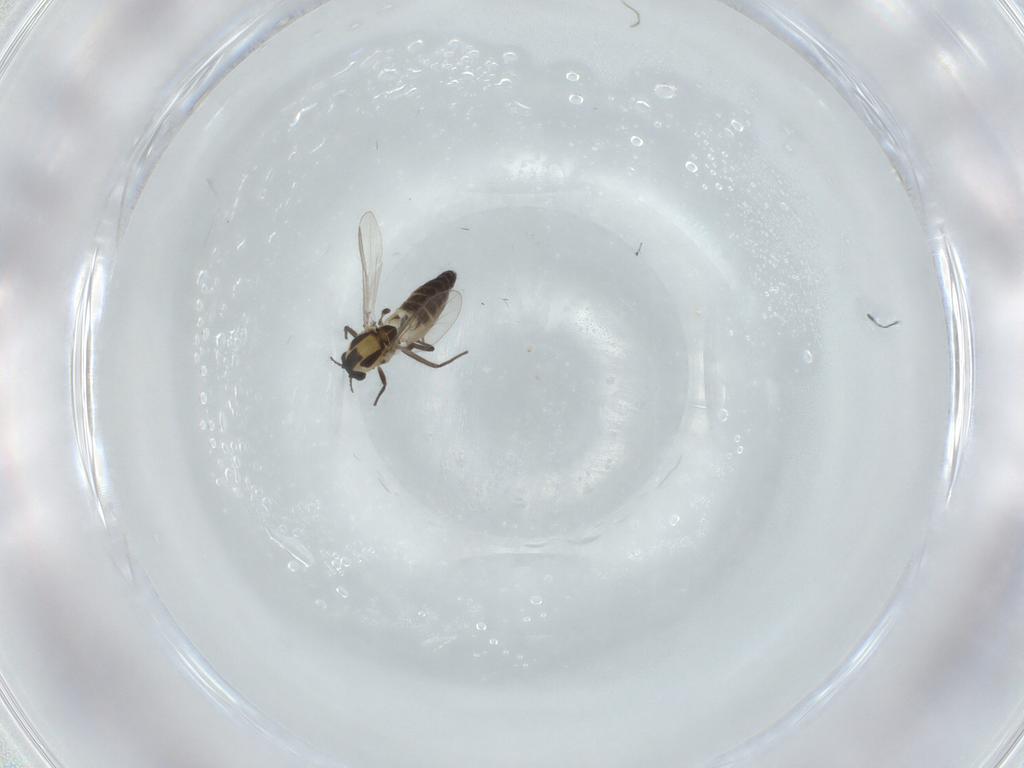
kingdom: Animalia
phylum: Arthropoda
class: Insecta
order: Diptera
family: Chironomidae
